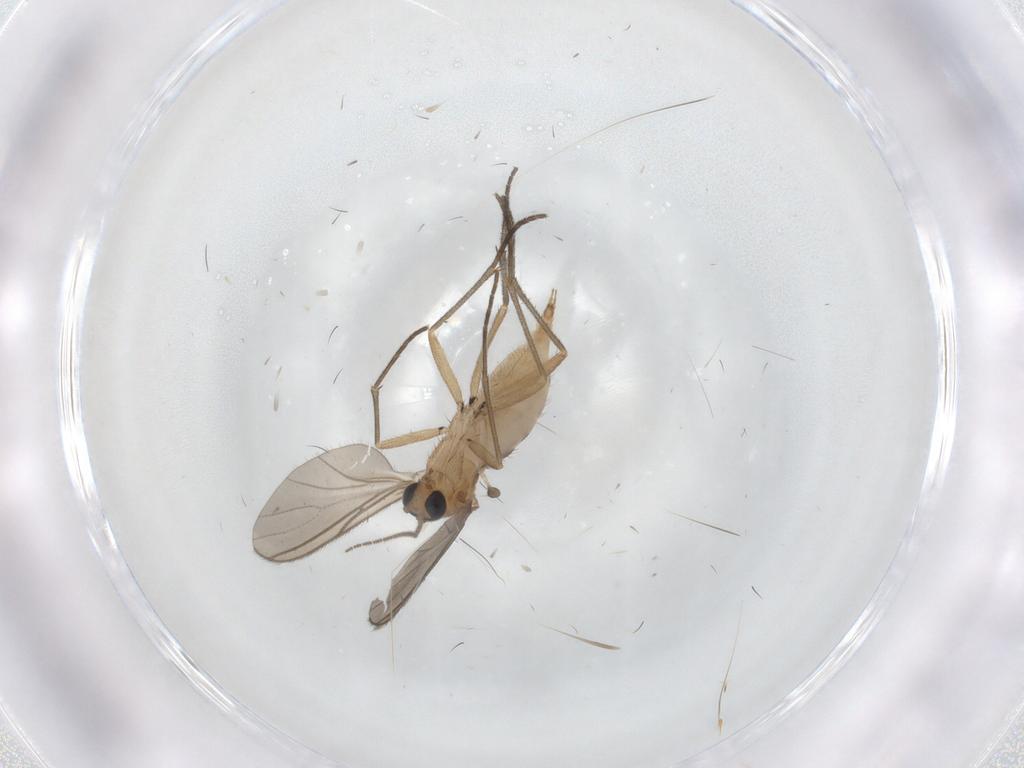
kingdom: Animalia
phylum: Arthropoda
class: Insecta
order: Diptera
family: Sciaridae
